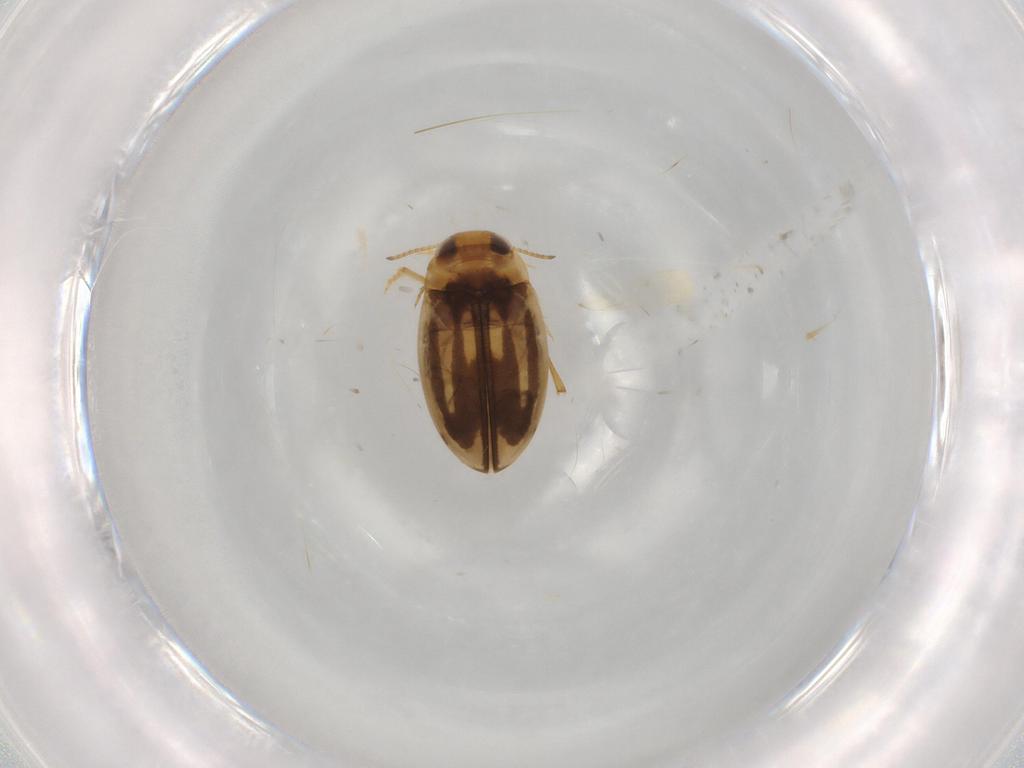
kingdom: Animalia
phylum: Arthropoda
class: Insecta
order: Coleoptera
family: Dytiscidae
